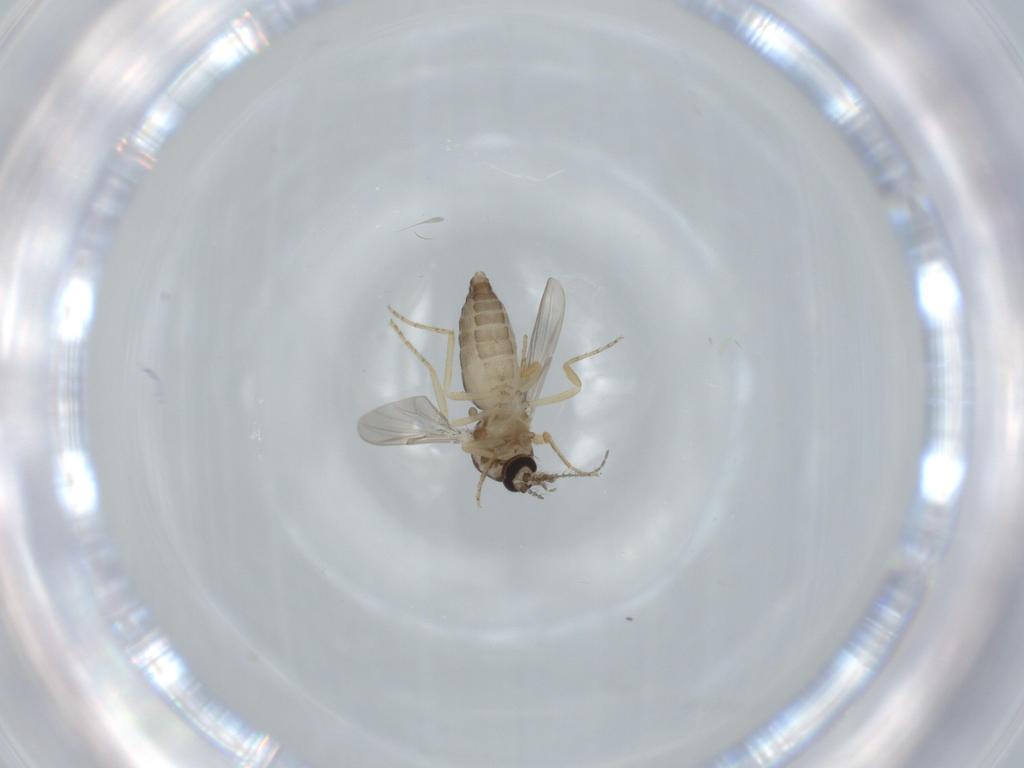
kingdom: Animalia
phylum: Arthropoda
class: Insecta
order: Diptera
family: Ceratopogonidae
